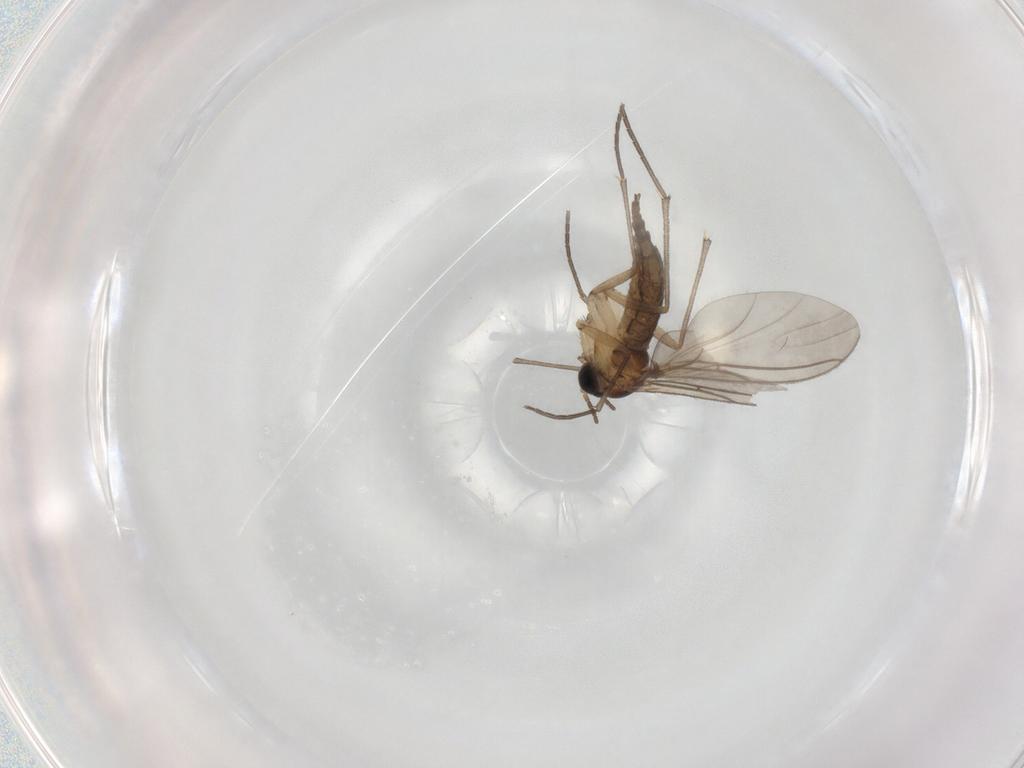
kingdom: Animalia
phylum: Arthropoda
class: Insecta
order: Diptera
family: Sciaridae
